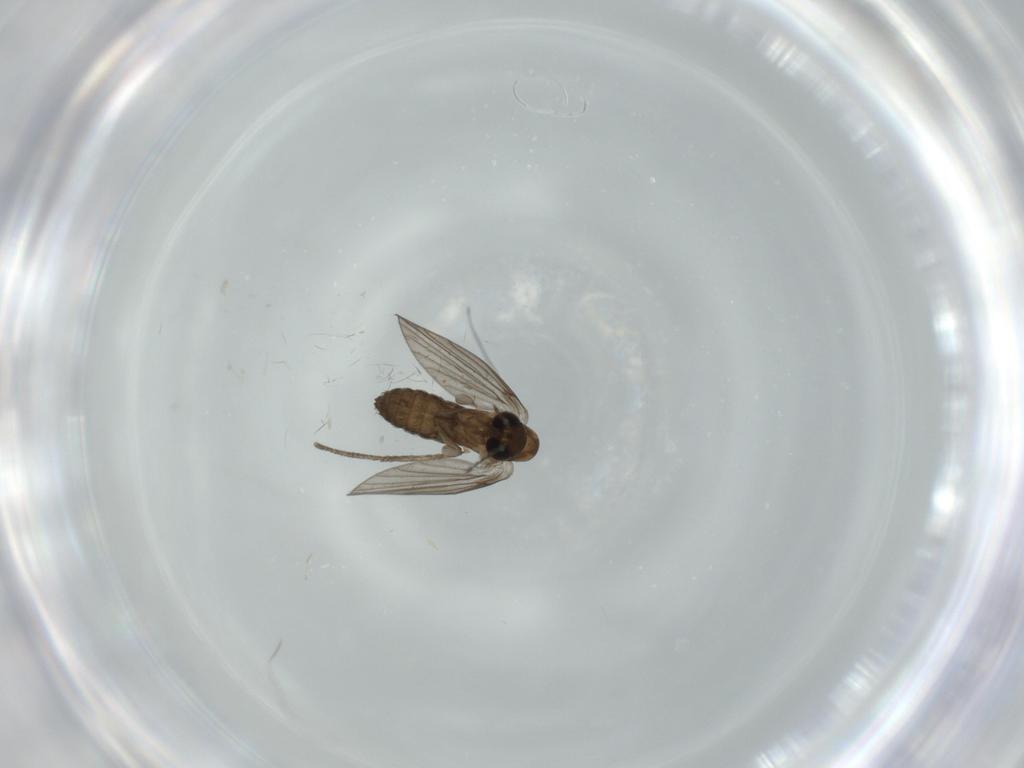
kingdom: Animalia
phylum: Arthropoda
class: Insecta
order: Diptera
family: Psychodidae
